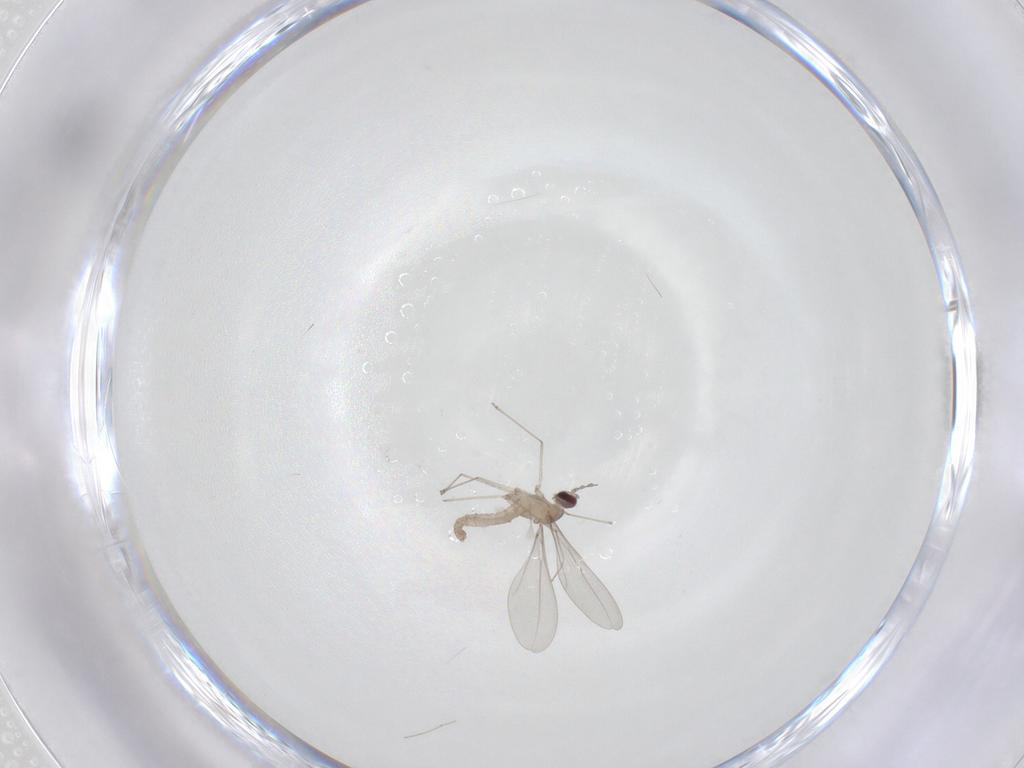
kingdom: Animalia
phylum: Arthropoda
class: Insecta
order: Diptera
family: Cecidomyiidae
